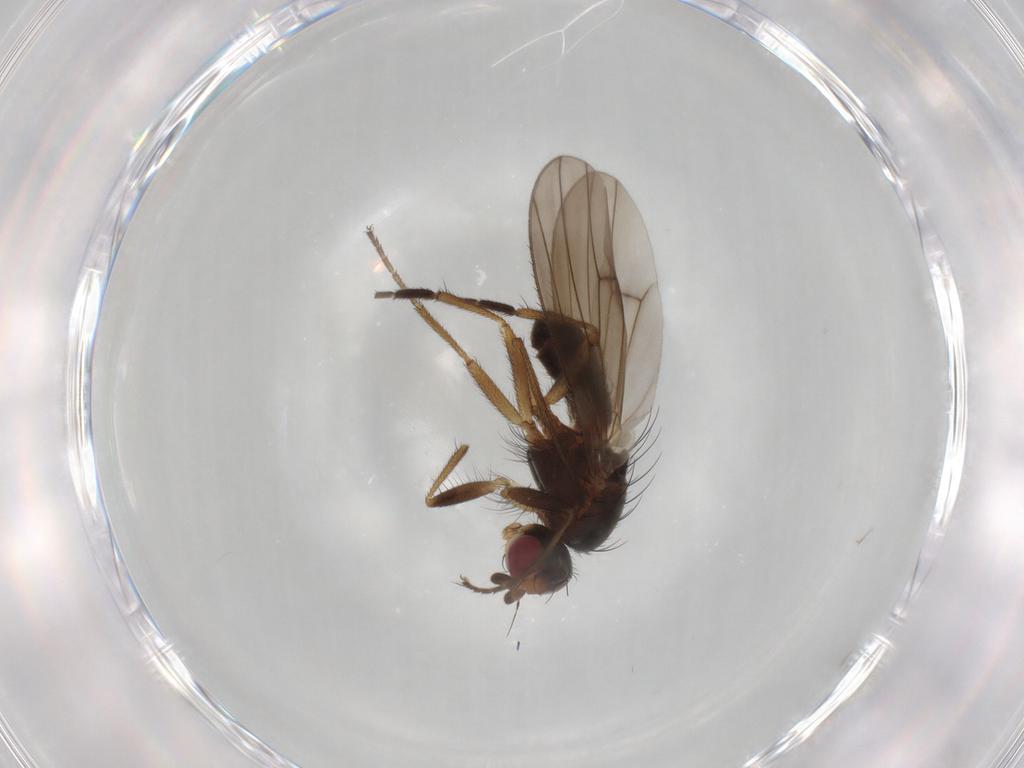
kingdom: Animalia
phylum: Arthropoda
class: Insecta
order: Diptera
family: Heleomyzidae
